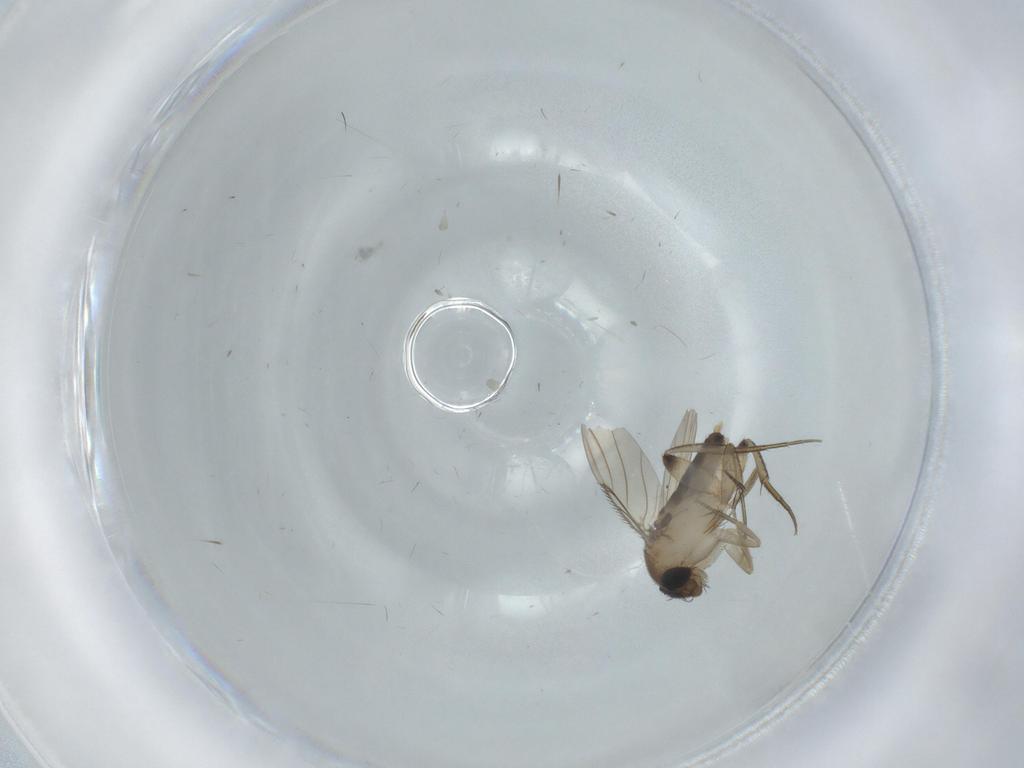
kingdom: Animalia
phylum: Arthropoda
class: Insecta
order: Diptera
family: Phoridae
